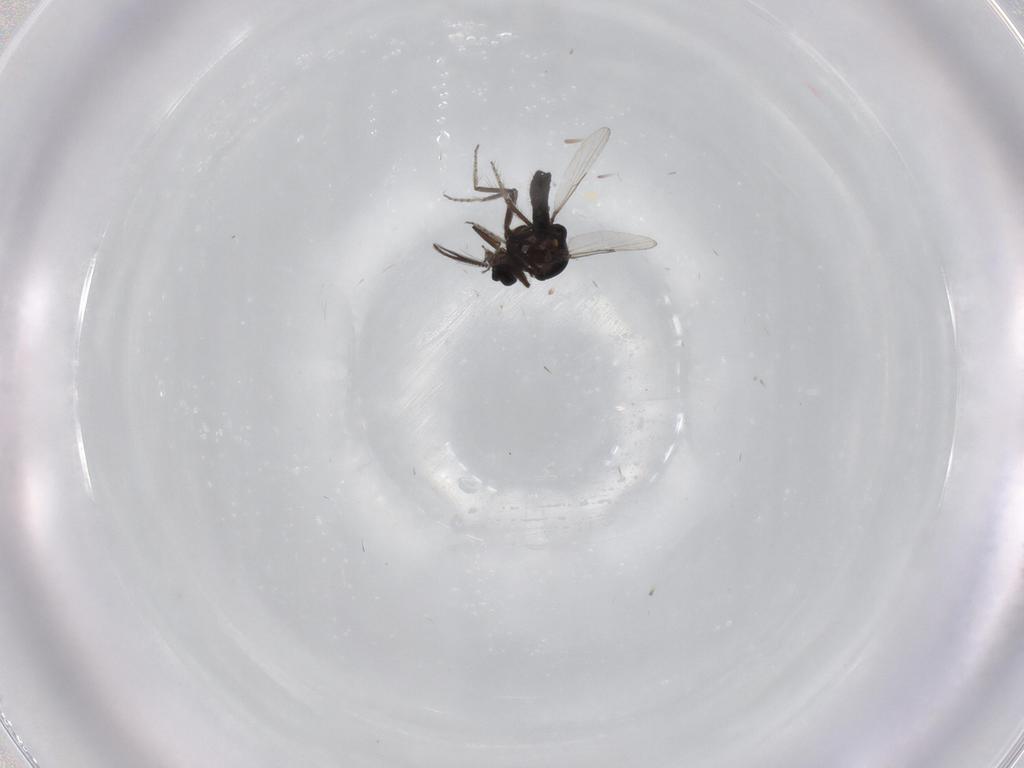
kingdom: Animalia
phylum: Arthropoda
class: Insecta
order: Diptera
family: Ceratopogonidae
